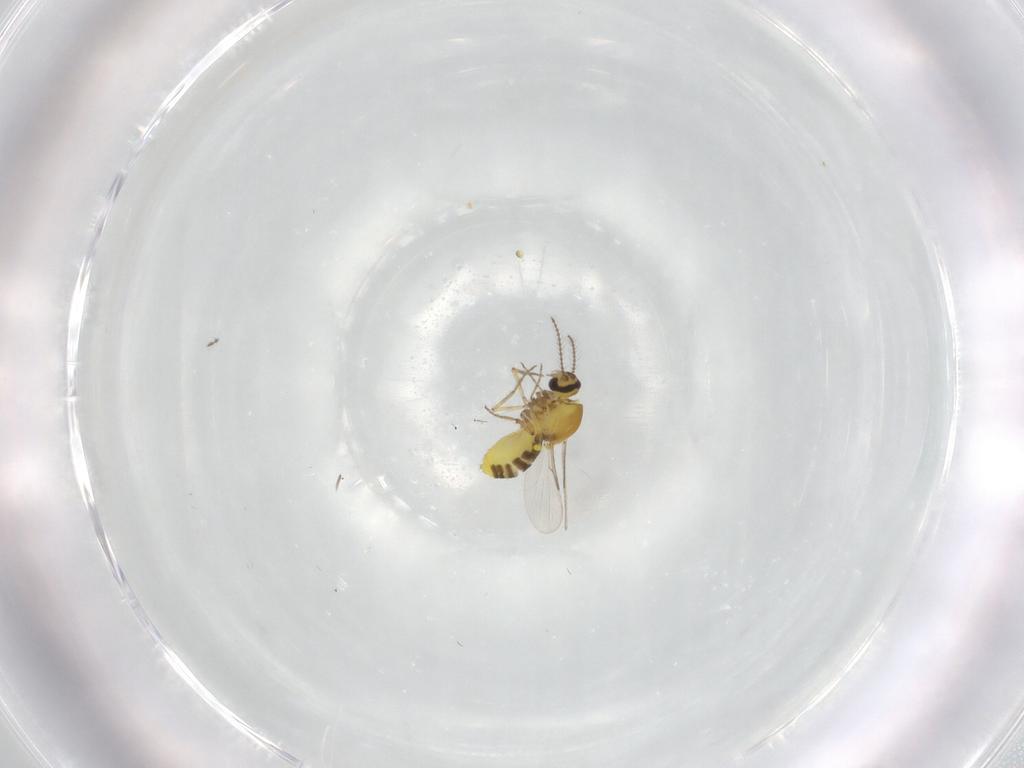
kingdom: Animalia
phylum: Arthropoda
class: Insecta
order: Diptera
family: Ceratopogonidae
